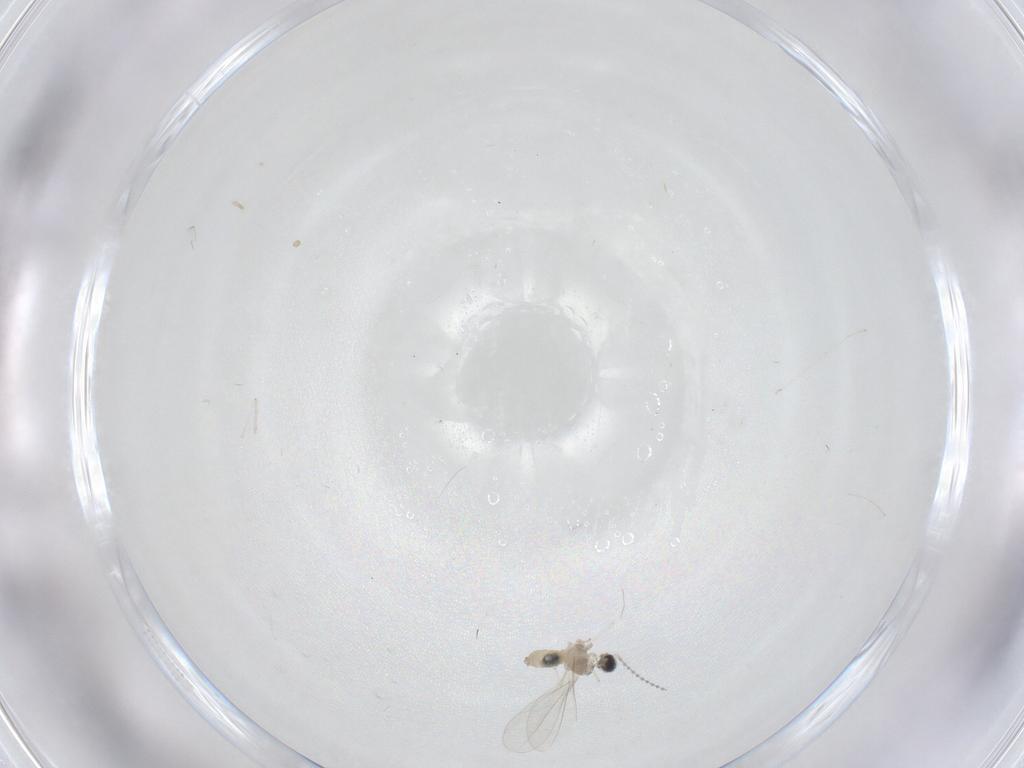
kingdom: Animalia
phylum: Arthropoda
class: Insecta
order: Diptera
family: Cecidomyiidae
